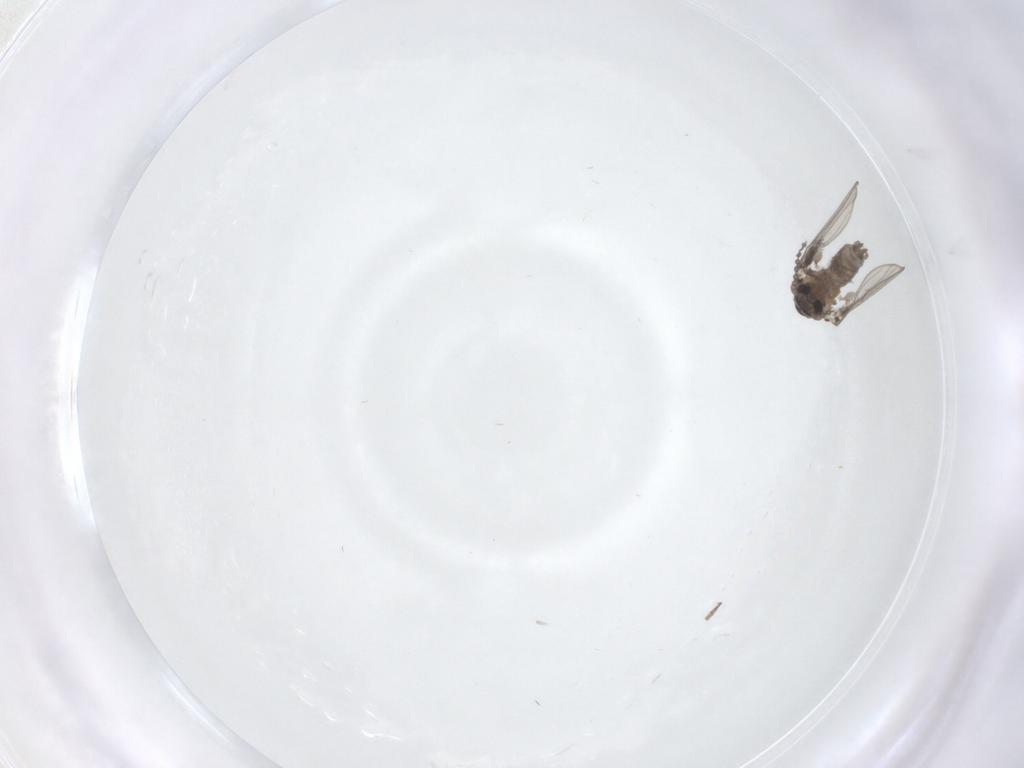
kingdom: Animalia
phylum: Arthropoda
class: Insecta
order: Diptera
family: Psychodidae
